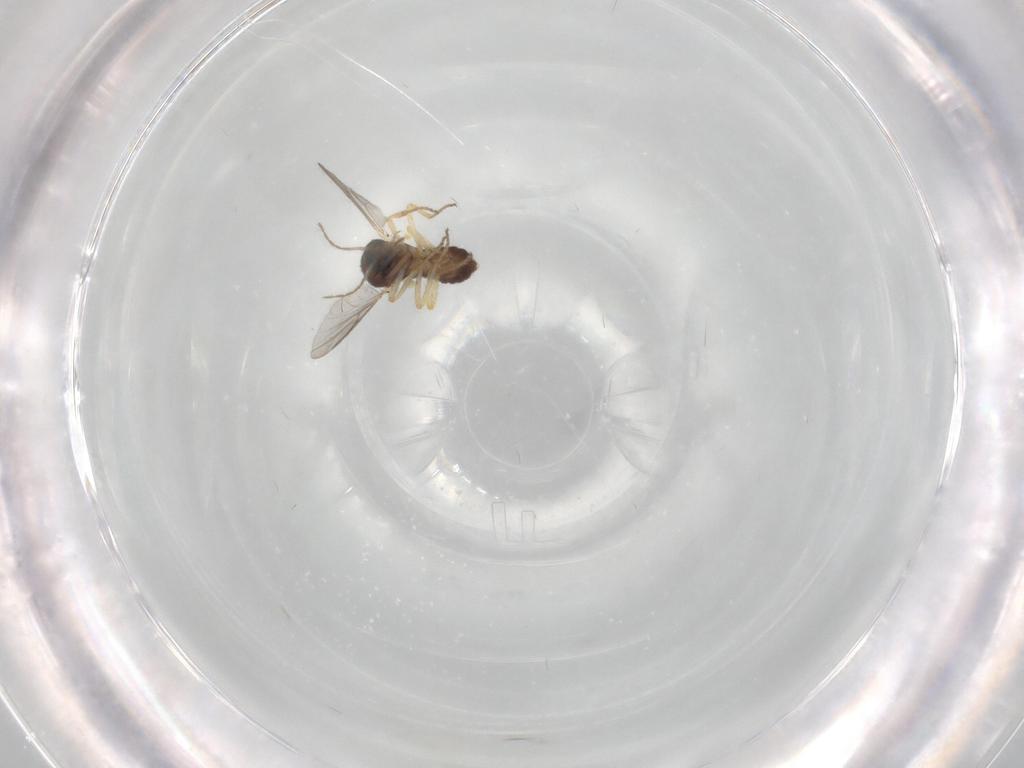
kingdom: Animalia
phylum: Arthropoda
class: Insecta
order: Diptera
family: Ceratopogonidae
